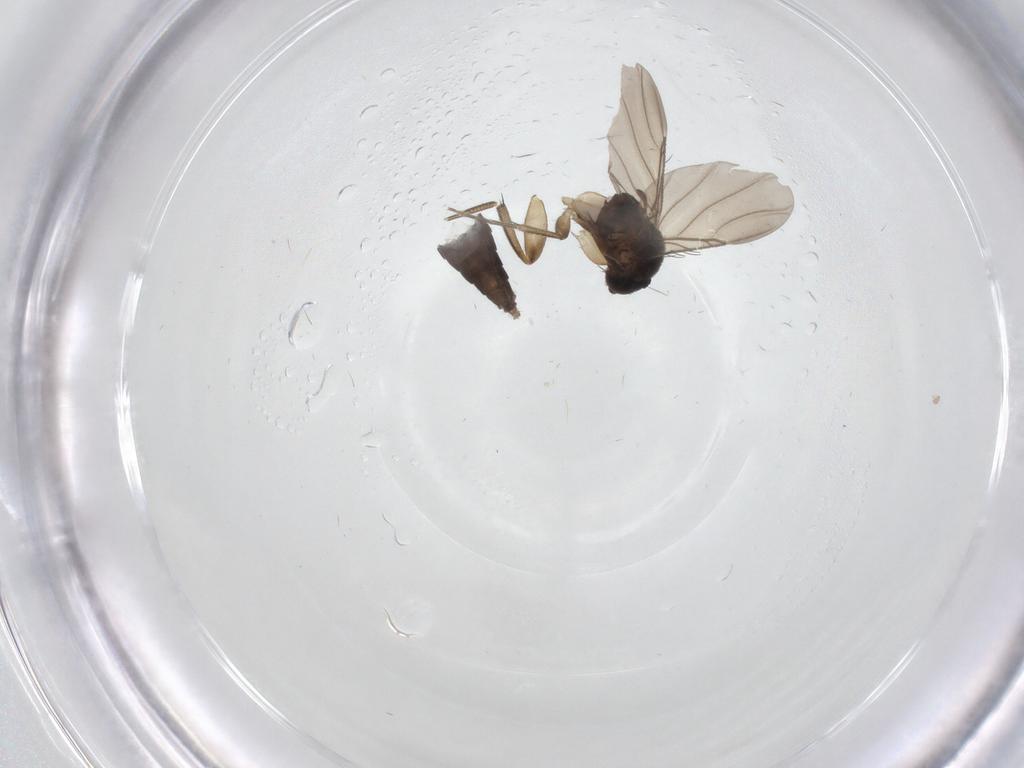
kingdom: Animalia
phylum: Arthropoda
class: Insecta
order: Diptera
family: Phoridae
